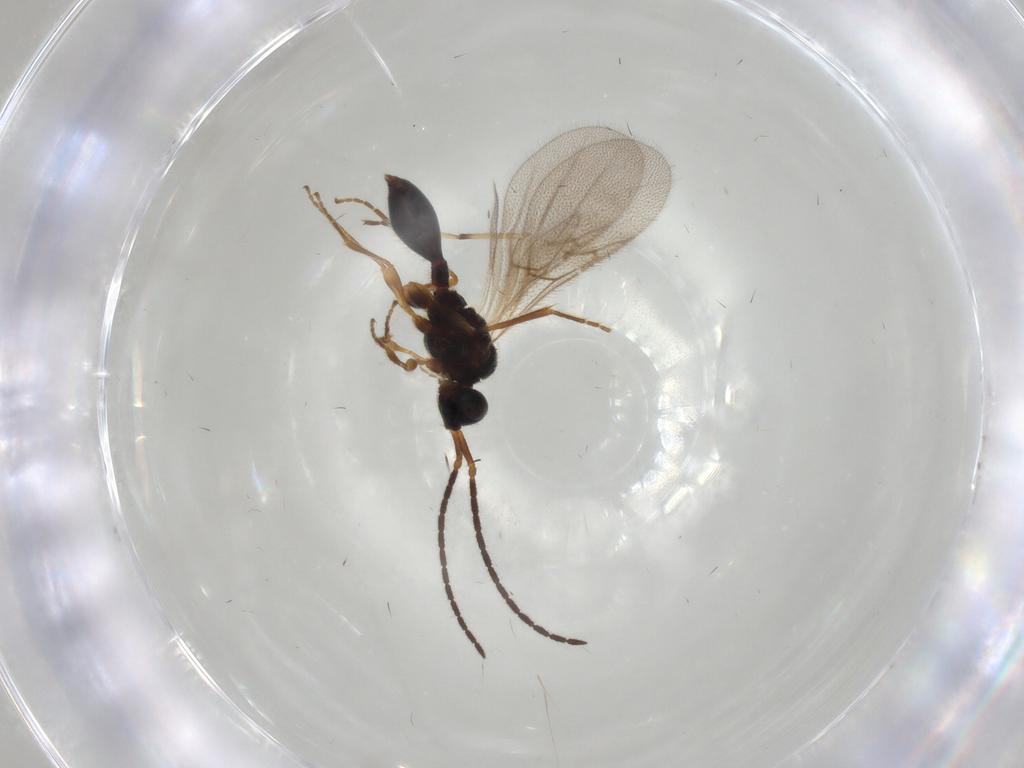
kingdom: Animalia
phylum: Arthropoda
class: Insecta
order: Hymenoptera
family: Diapriidae
